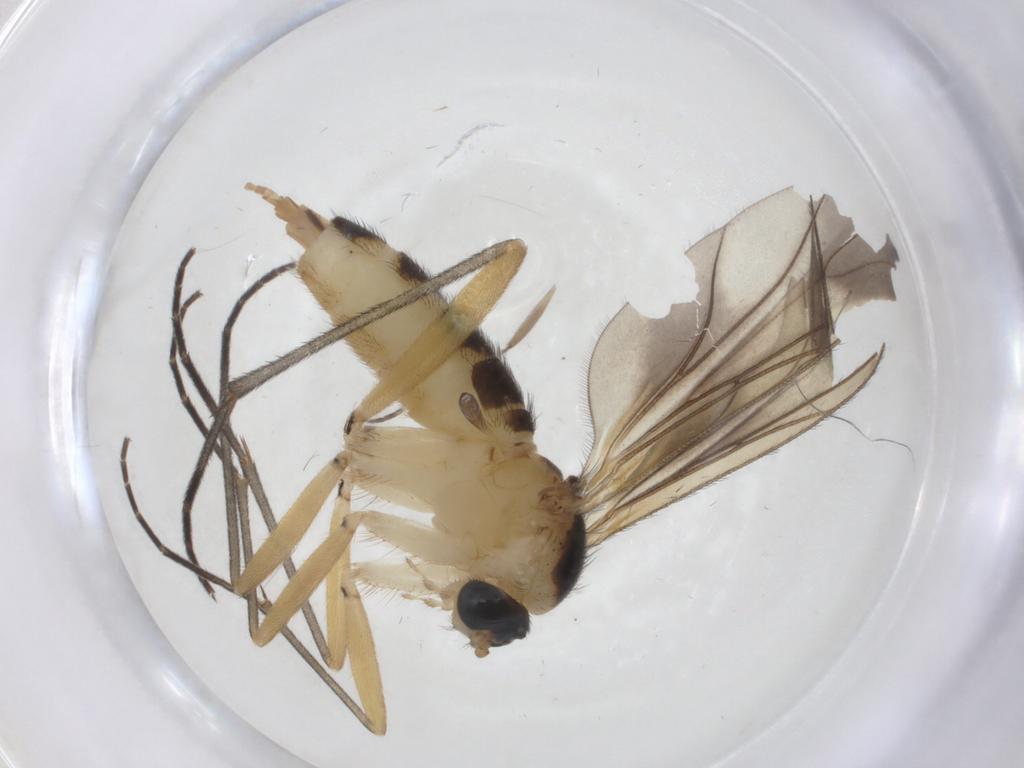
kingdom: Animalia
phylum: Arthropoda
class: Insecta
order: Diptera
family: Sciaridae
